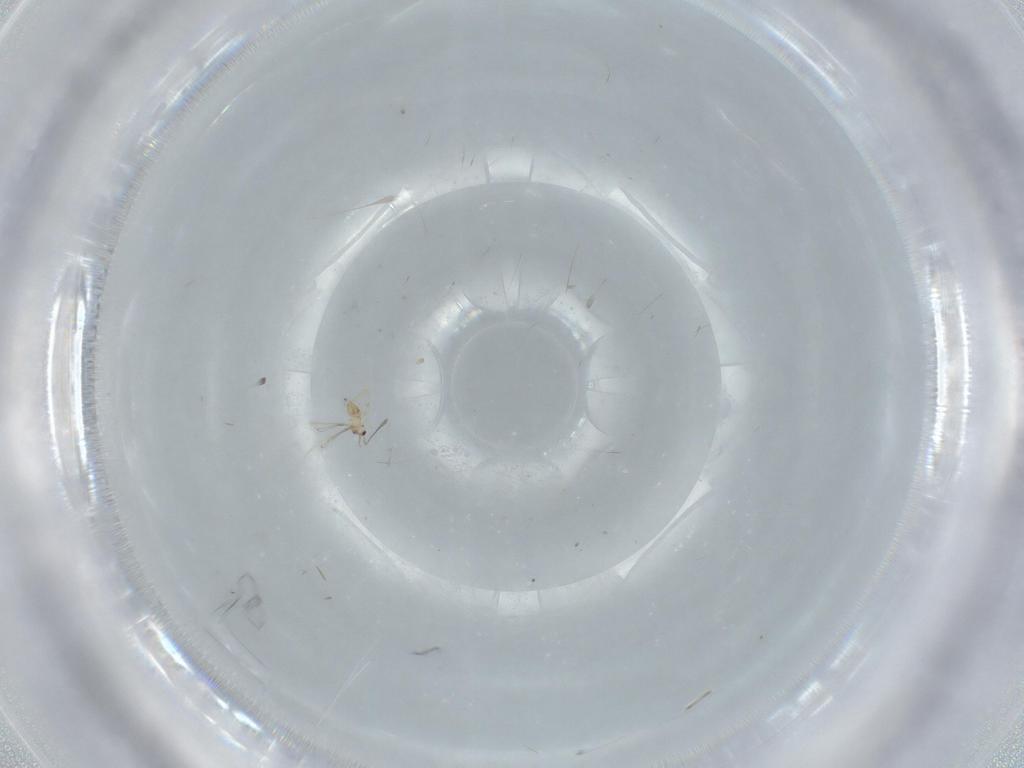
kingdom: Animalia
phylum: Arthropoda
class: Insecta
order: Hymenoptera
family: Mymaridae
